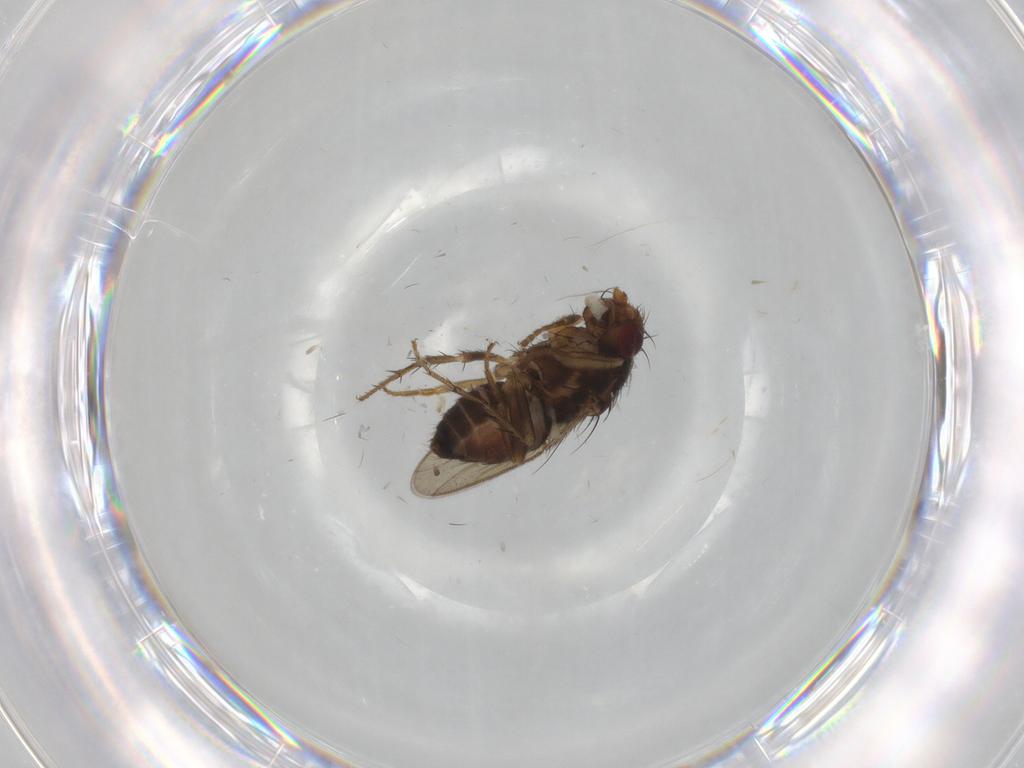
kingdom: Animalia
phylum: Arthropoda
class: Insecta
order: Diptera
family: Sphaeroceridae
